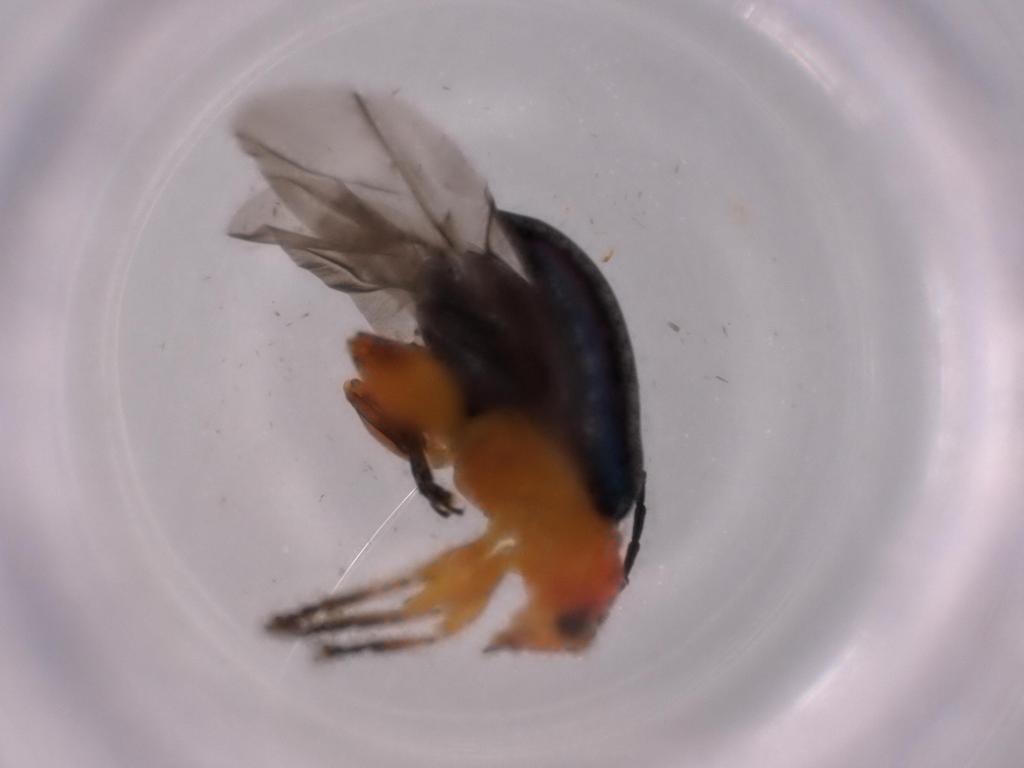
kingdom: Animalia
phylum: Arthropoda
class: Insecta
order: Coleoptera
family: Chrysomelidae
